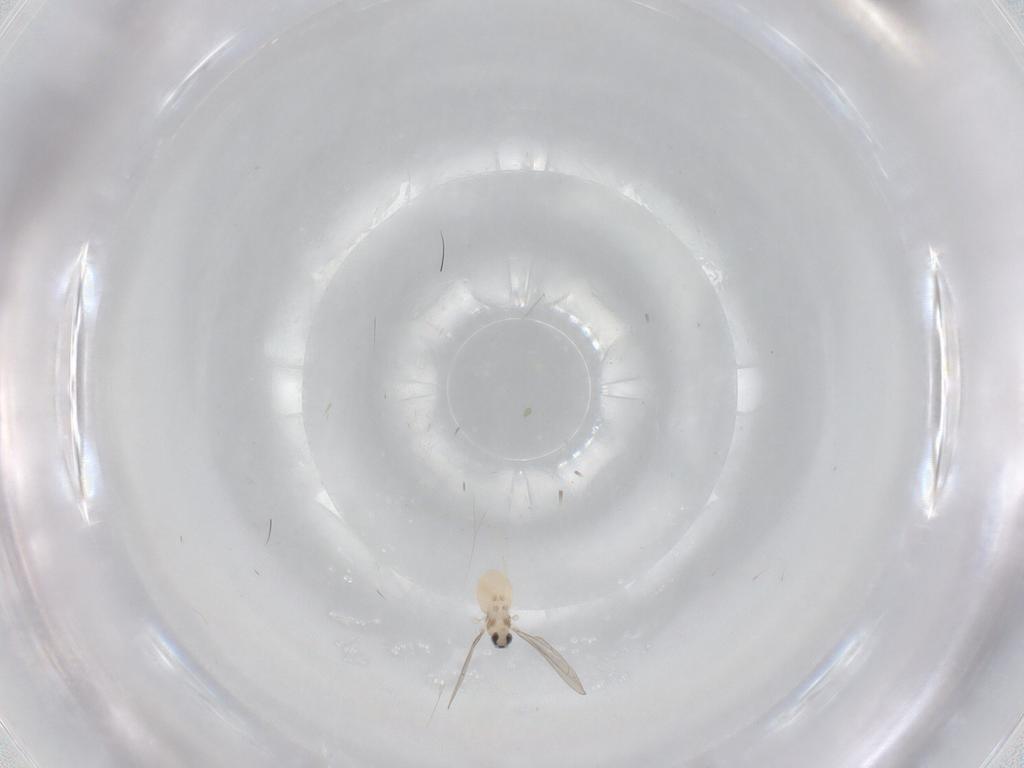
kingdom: Animalia
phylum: Arthropoda
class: Insecta
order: Diptera
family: Cecidomyiidae
